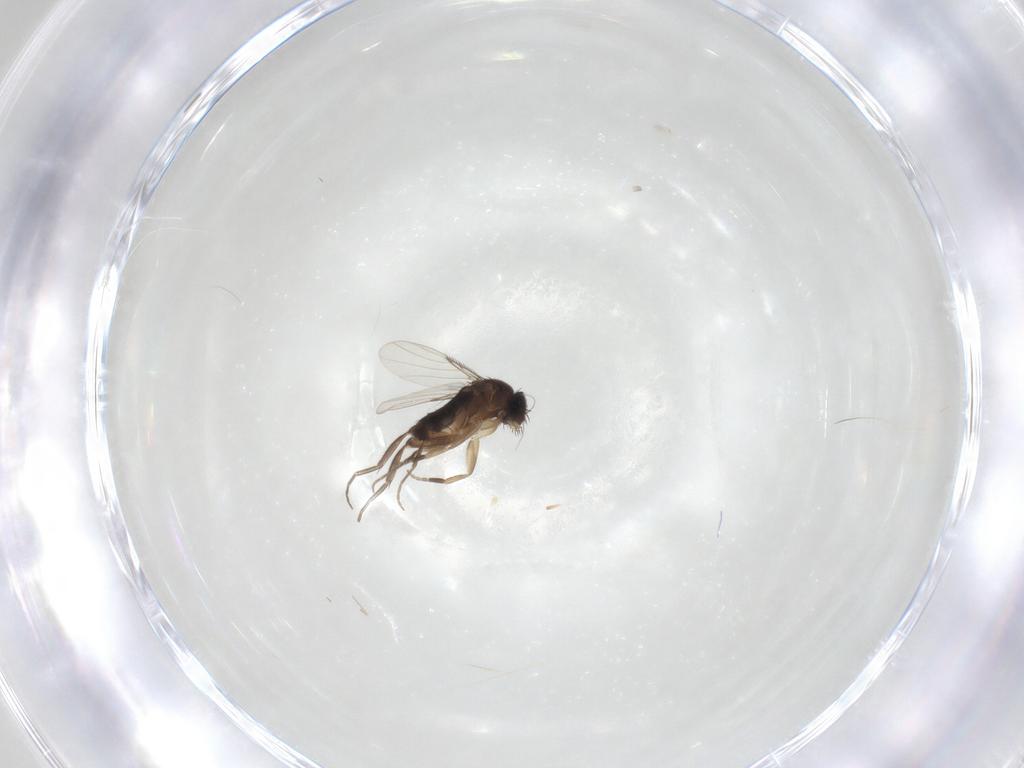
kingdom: Animalia
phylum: Arthropoda
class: Insecta
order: Diptera
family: Phoridae
